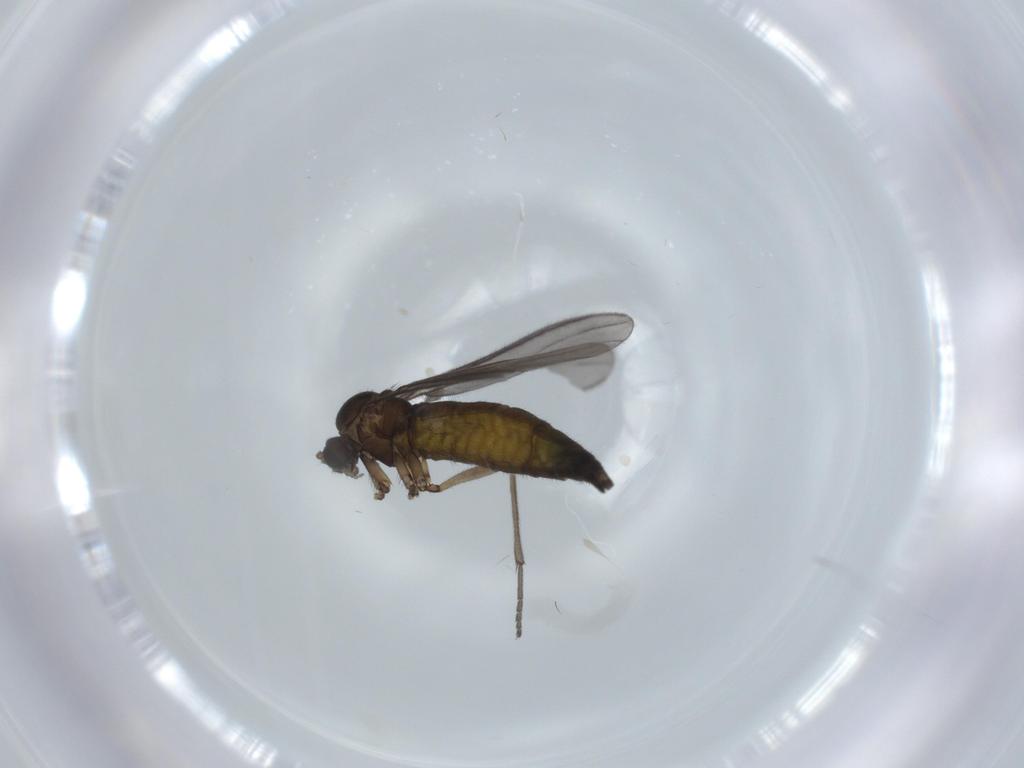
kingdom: Animalia
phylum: Arthropoda
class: Insecta
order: Diptera
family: Sciaridae
